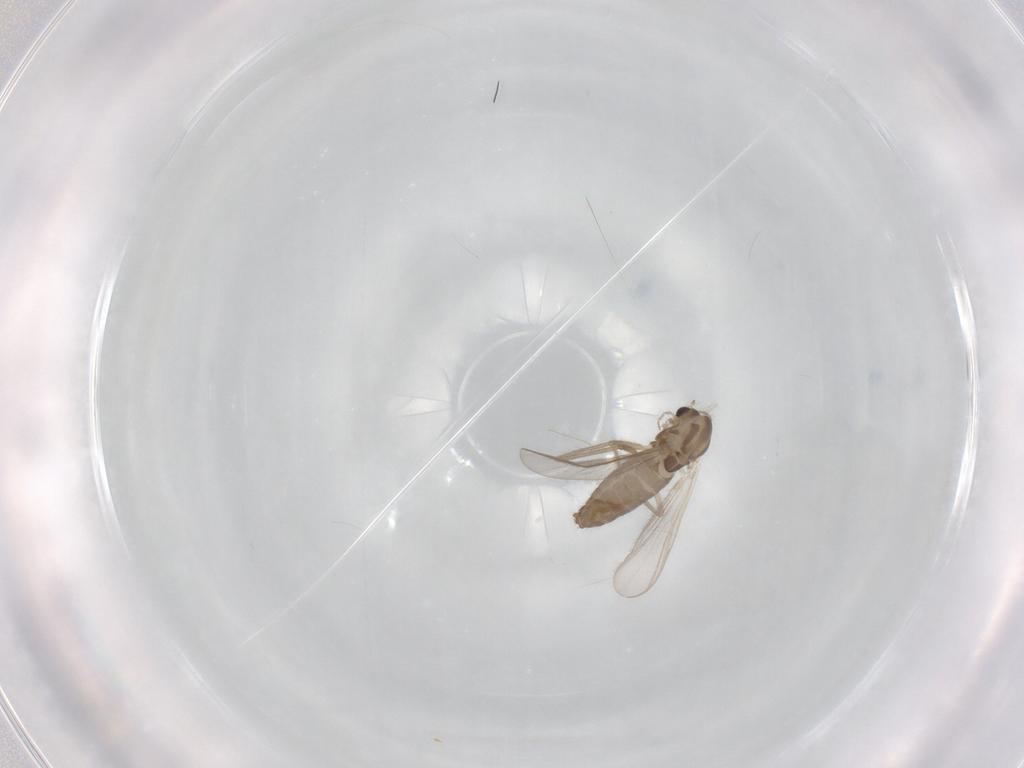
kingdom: Animalia
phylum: Arthropoda
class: Insecta
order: Diptera
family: Chironomidae
